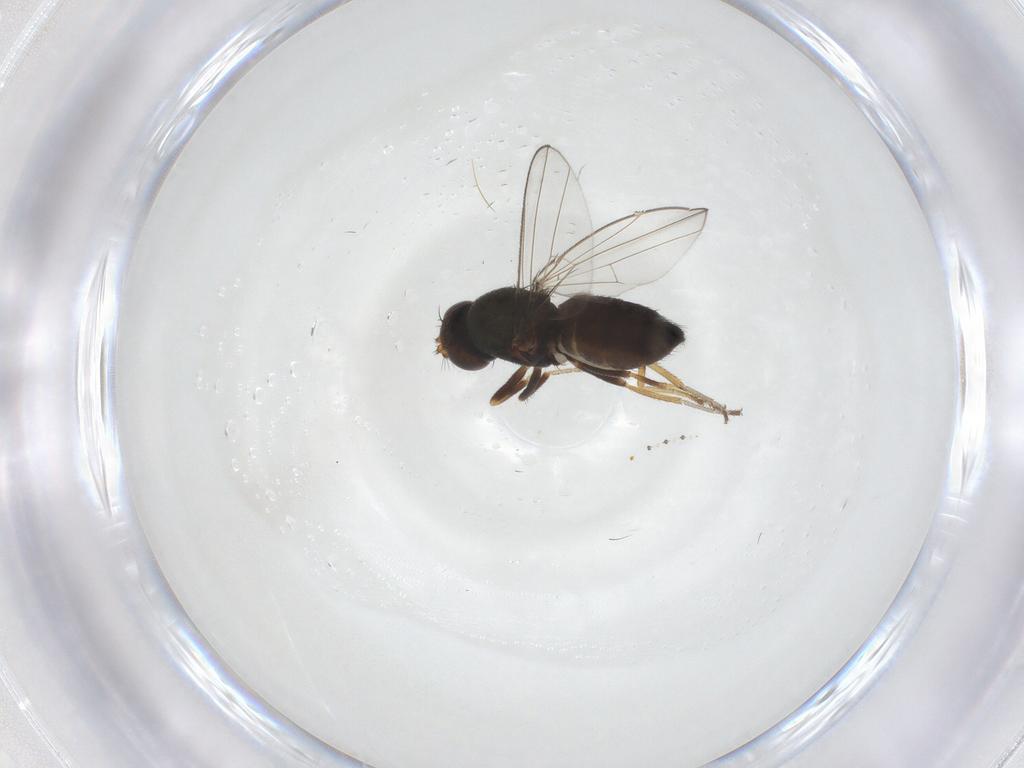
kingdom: Animalia
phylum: Arthropoda
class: Insecta
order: Diptera
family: Ephydridae
